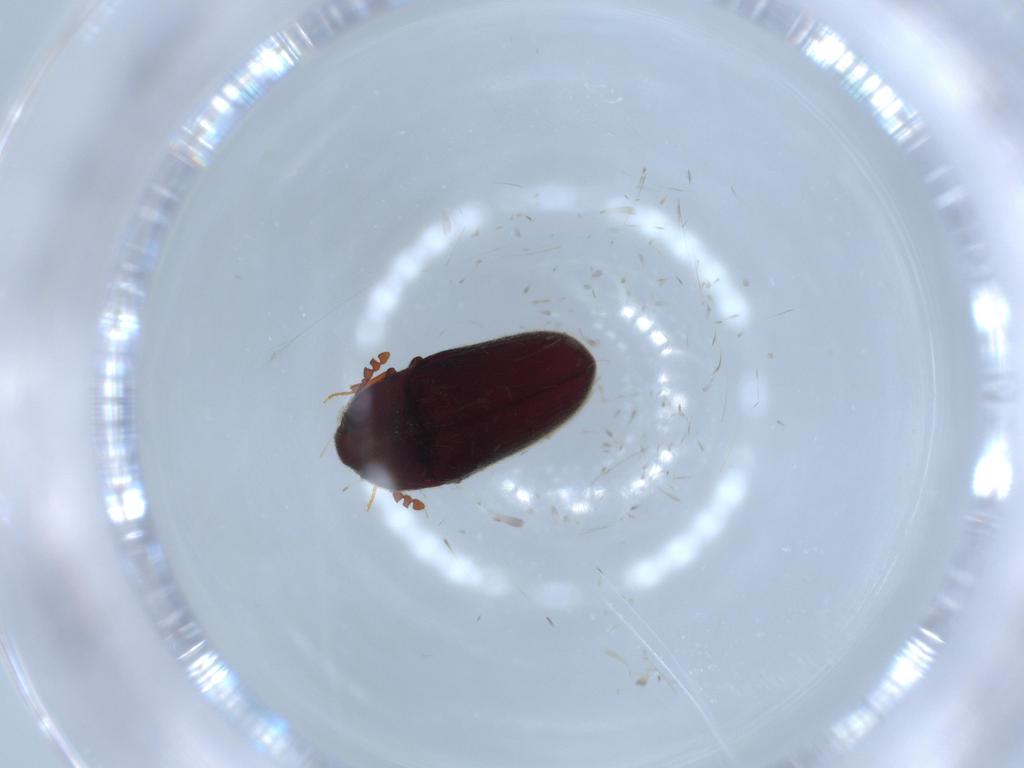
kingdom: Animalia
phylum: Arthropoda
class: Insecta
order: Coleoptera
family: Throscidae
